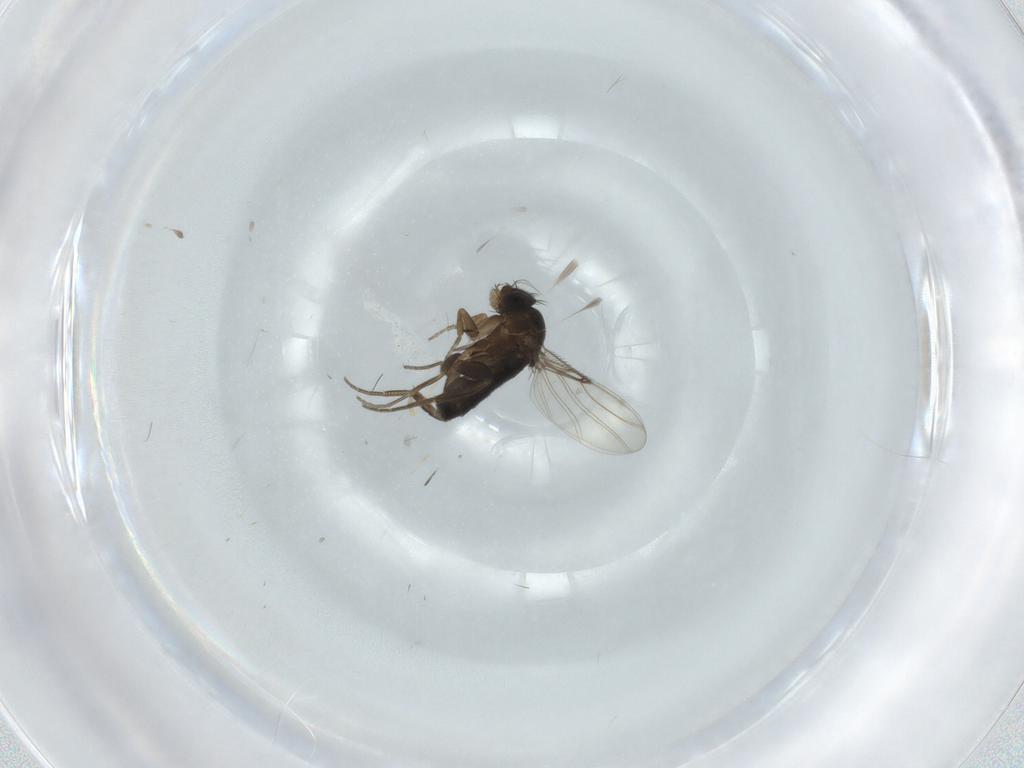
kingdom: Animalia
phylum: Arthropoda
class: Insecta
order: Diptera
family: Phoridae
